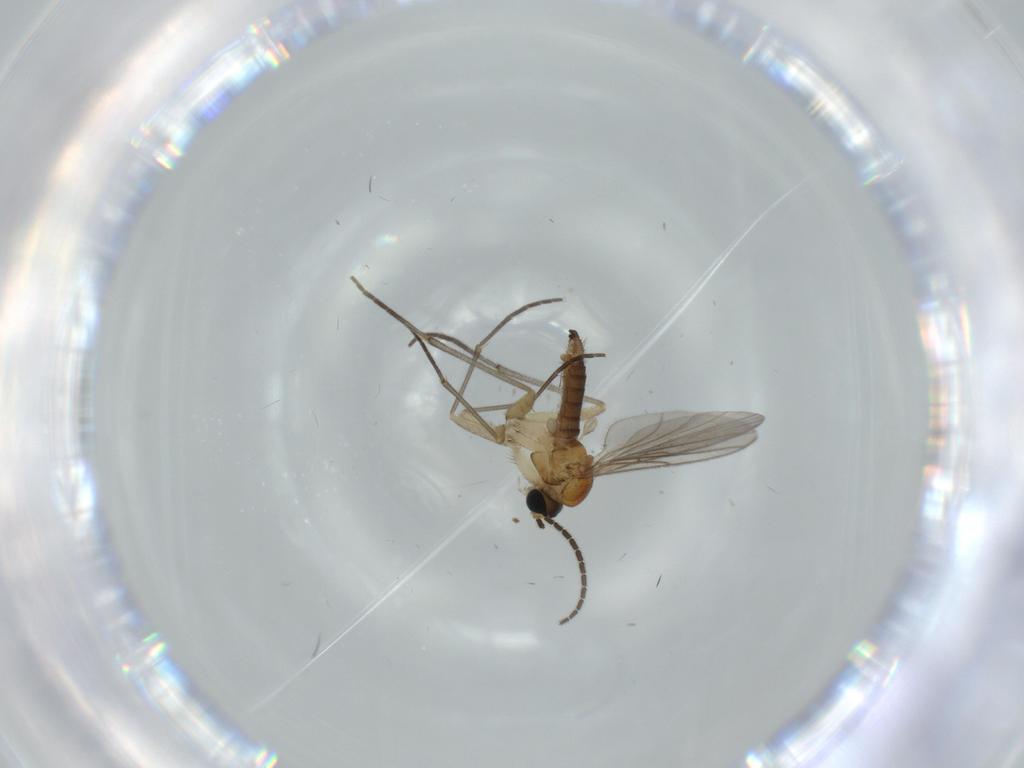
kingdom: Animalia
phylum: Arthropoda
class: Insecta
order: Diptera
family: Sciaridae
